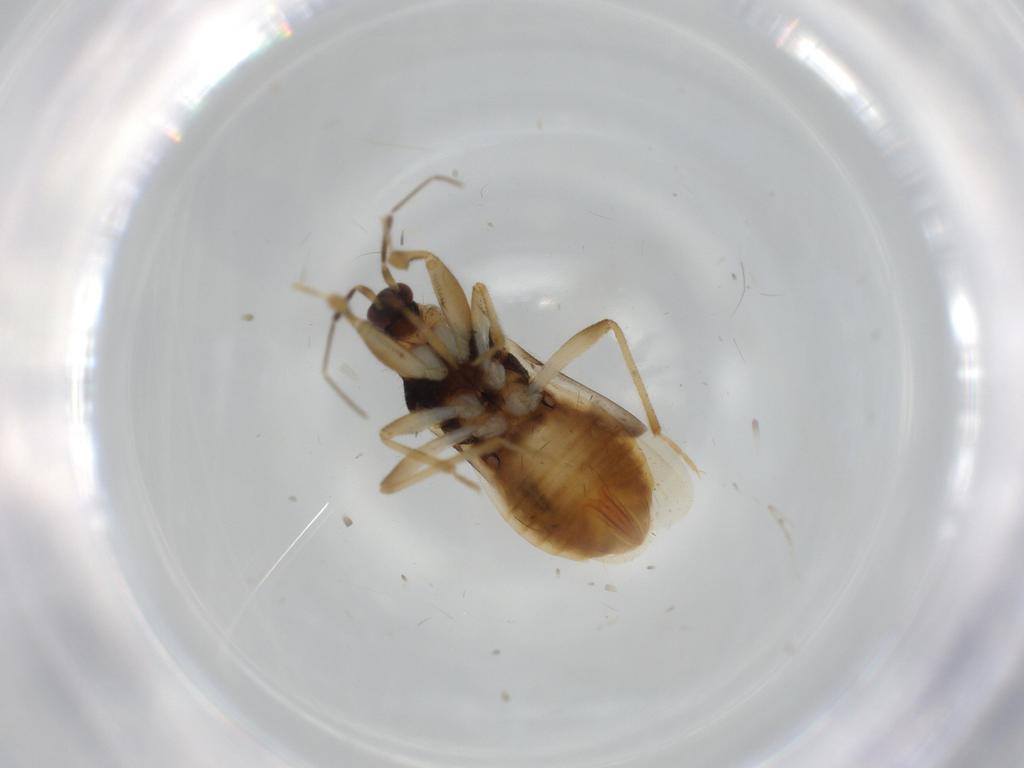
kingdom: Animalia
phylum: Arthropoda
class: Insecta
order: Hemiptera
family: Nabidae
